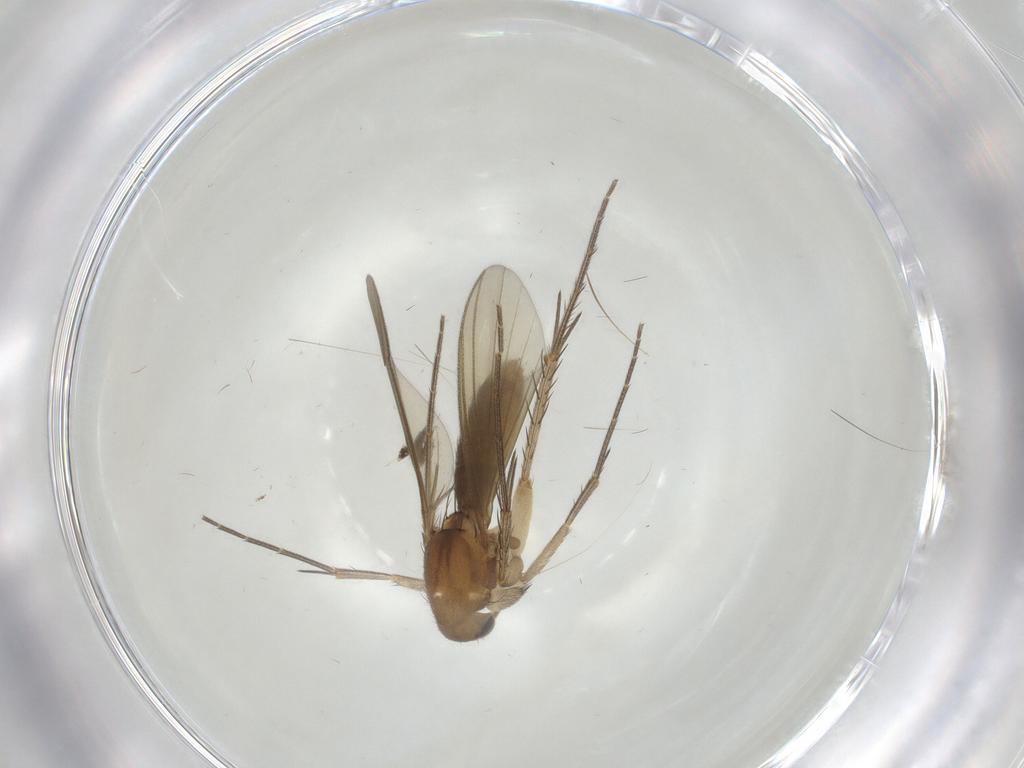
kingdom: Animalia
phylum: Arthropoda
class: Insecta
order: Diptera
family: Mycetophilidae
